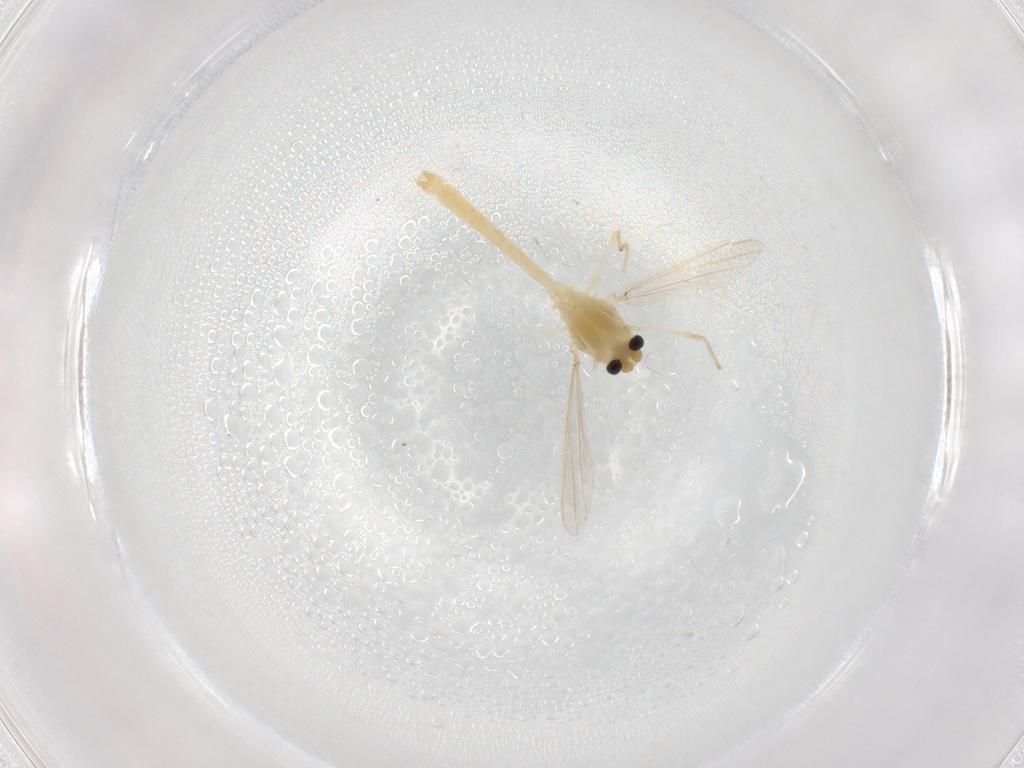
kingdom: Animalia
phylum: Arthropoda
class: Insecta
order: Diptera
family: Cecidomyiidae
